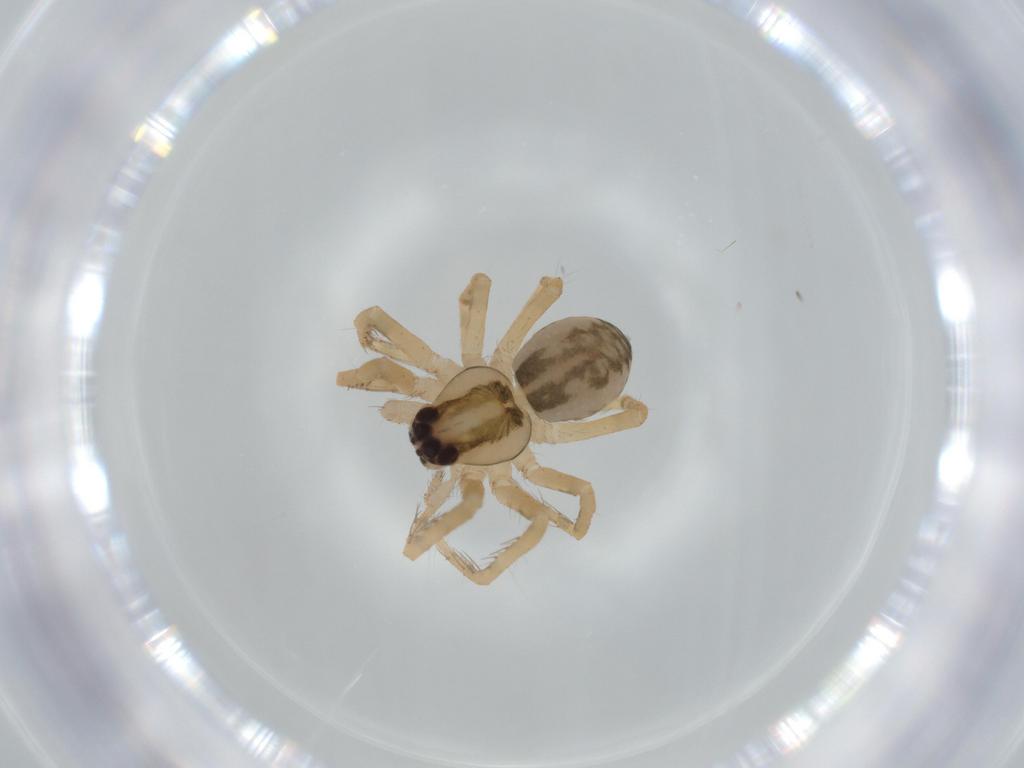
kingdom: Animalia
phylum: Arthropoda
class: Arachnida
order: Araneae
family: Ctenidae
